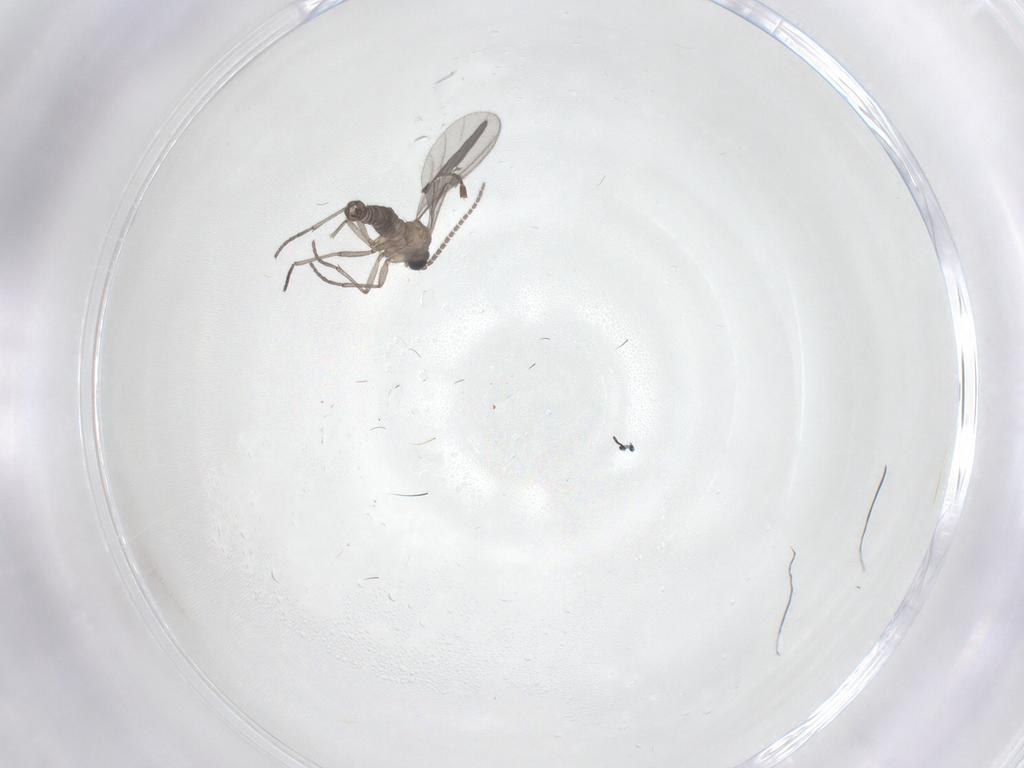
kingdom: Animalia
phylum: Arthropoda
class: Insecta
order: Diptera
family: Sciaridae
